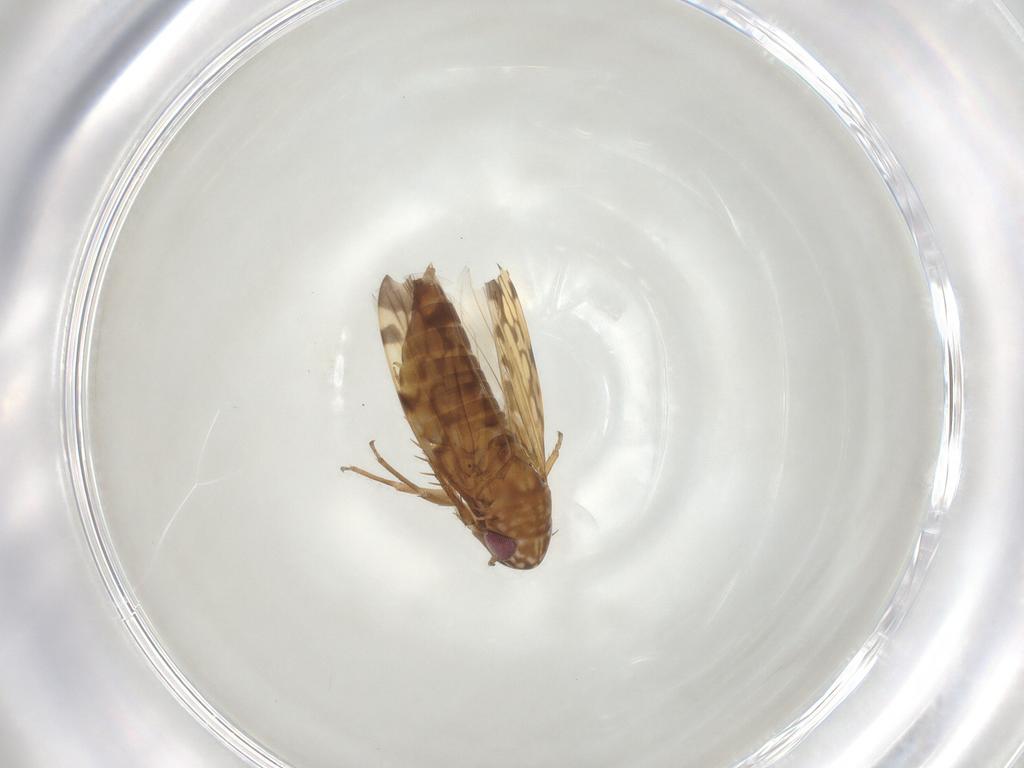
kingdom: Animalia
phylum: Arthropoda
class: Insecta
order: Hemiptera
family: Cicadellidae
